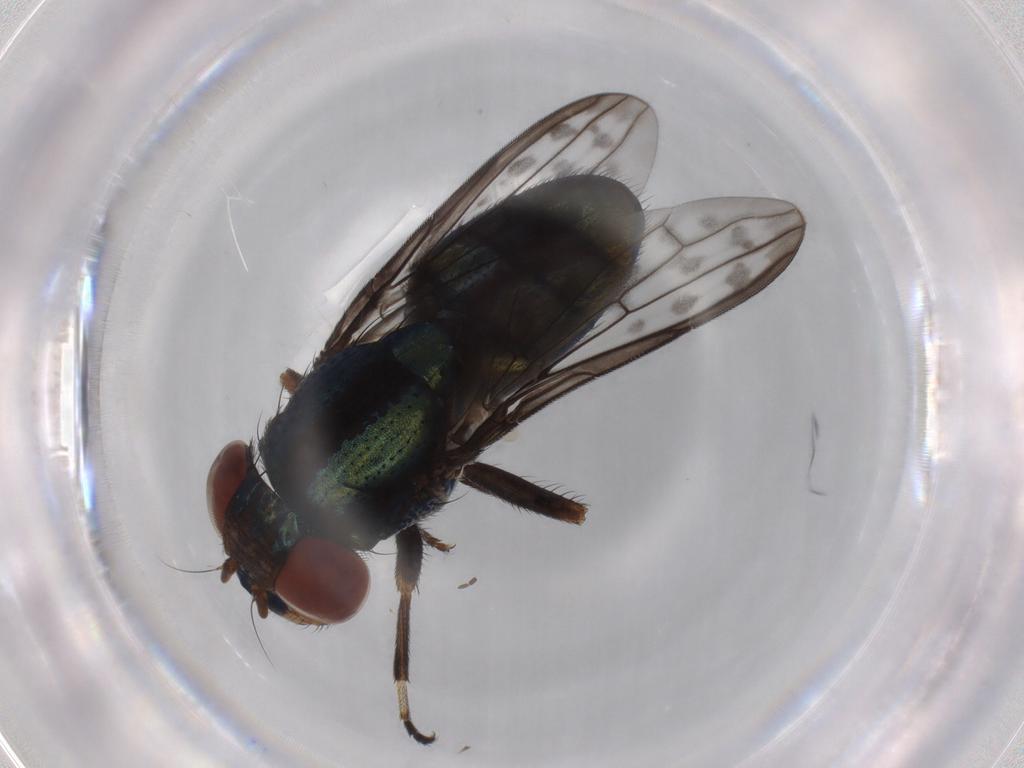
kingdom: Animalia
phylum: Arthropoda
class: Insecta
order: Diptera
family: Ulidiidae
